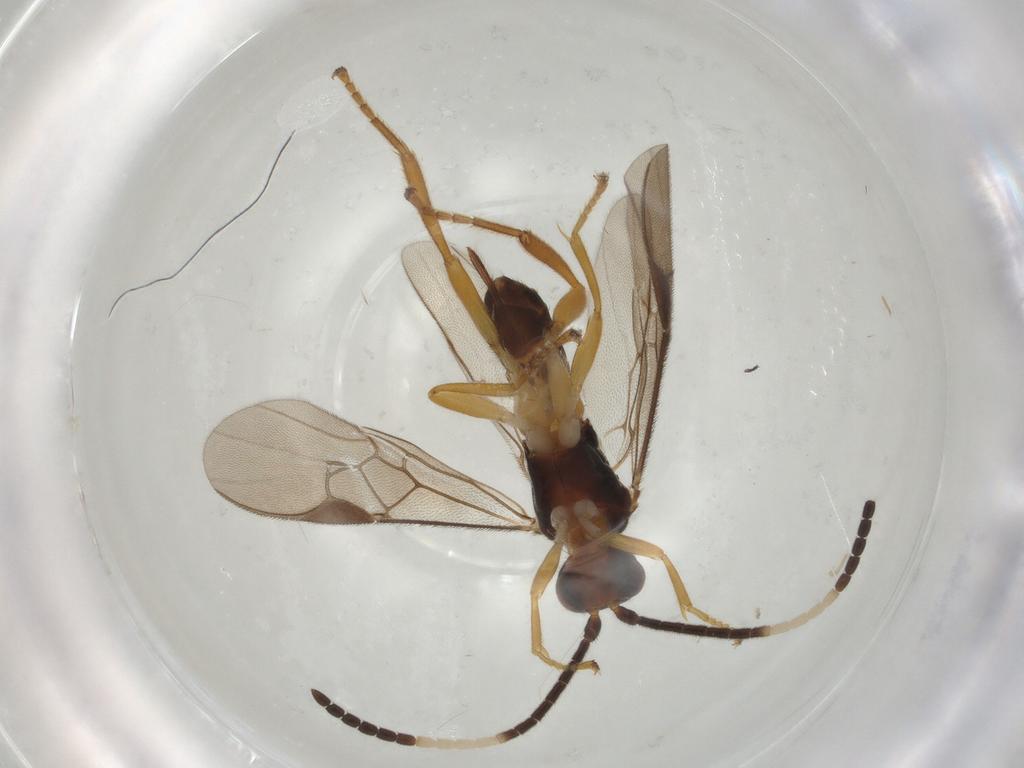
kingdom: Animalia
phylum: Arthropoda
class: Insecta
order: Hymenoptera
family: Braconidae
